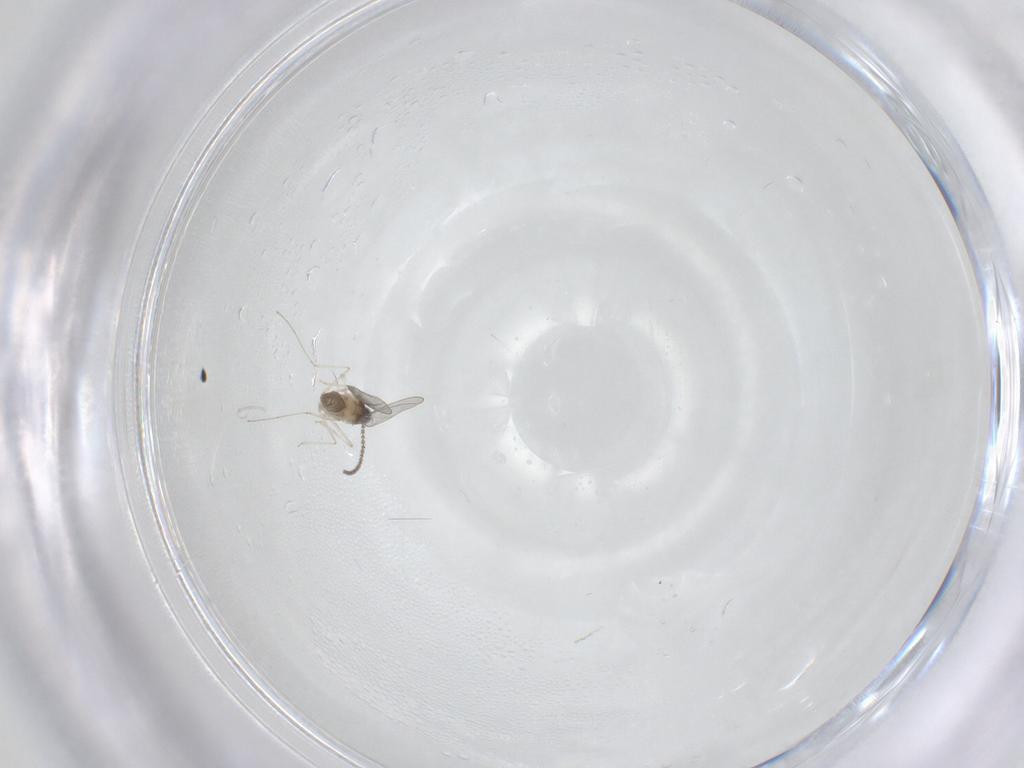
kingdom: Animalia
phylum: Arthropoda
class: Insecta
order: Diptera
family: Cecidomyiidae
